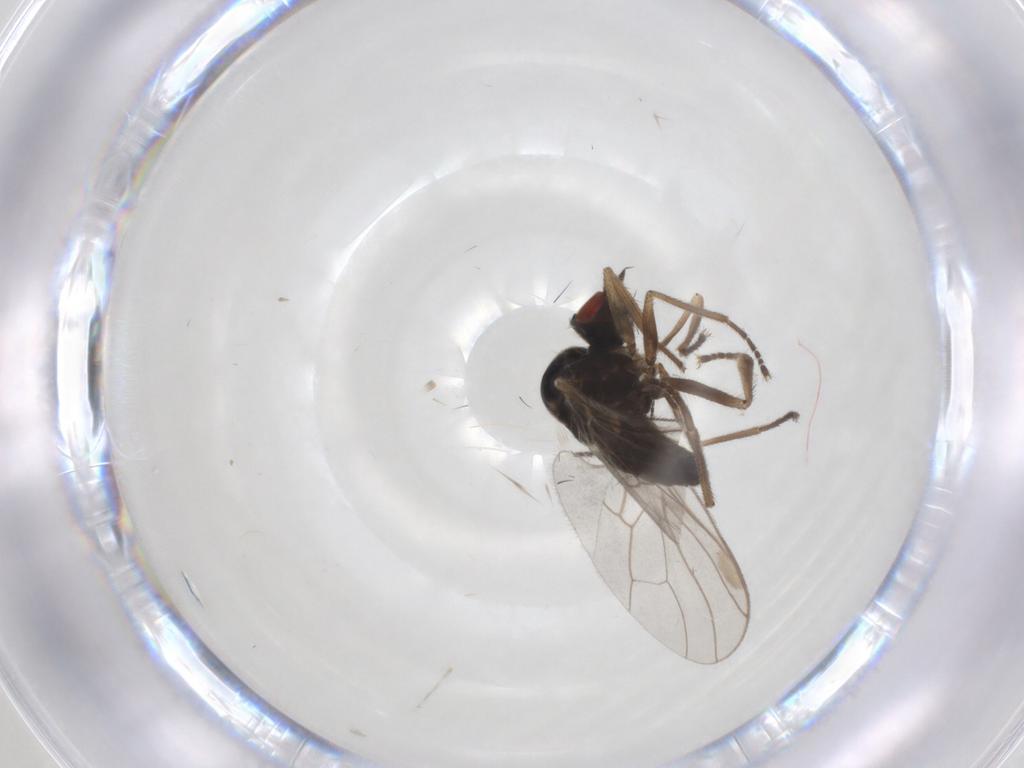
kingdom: Animalia
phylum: Arthropoda
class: Insecta
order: Diptera
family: Hybotidae
